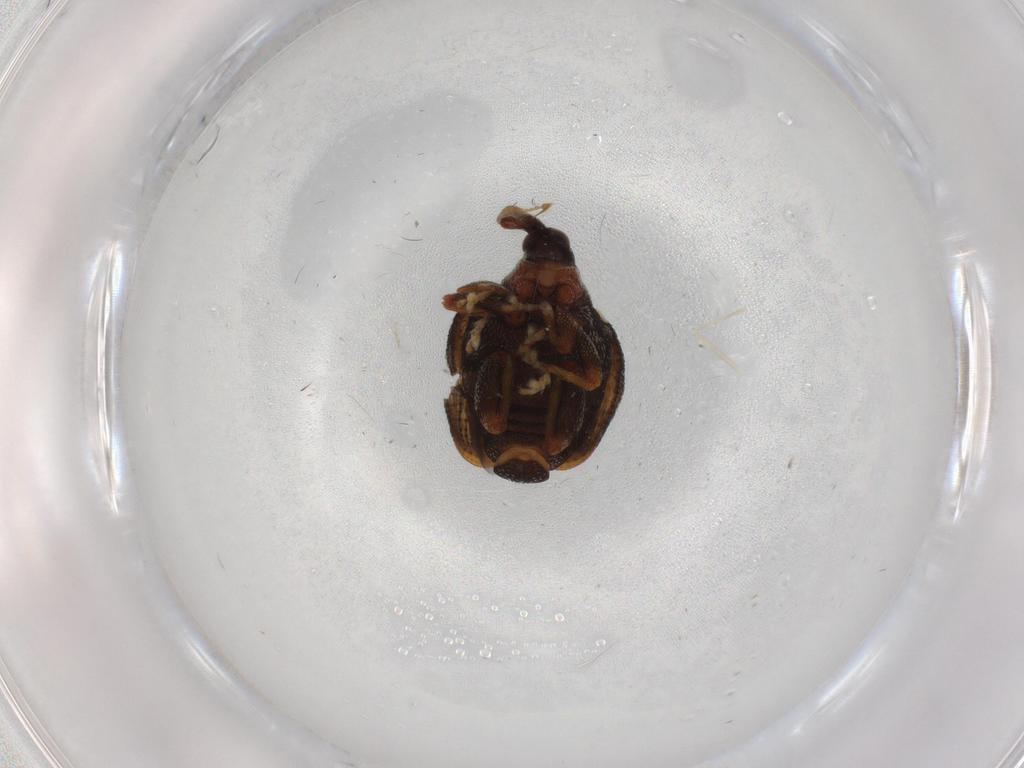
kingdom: Animalia
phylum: Arthropoda
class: Insecta
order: Coleoptera
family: Curculionidae
